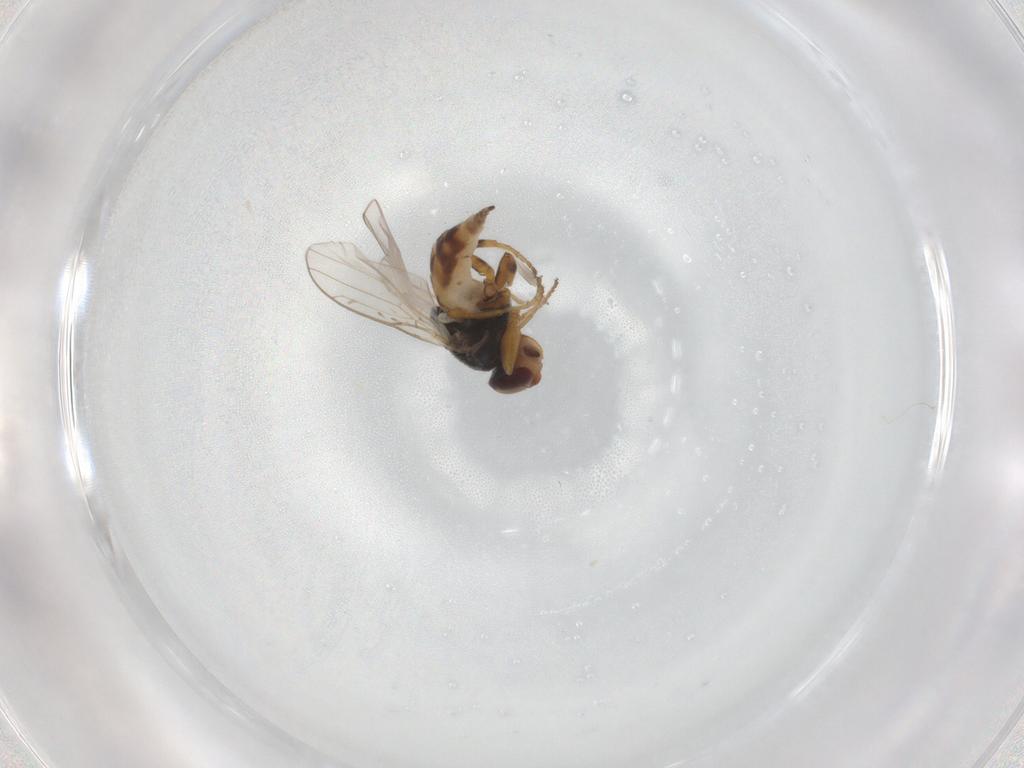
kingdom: Animalia
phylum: Arthropoda
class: Insecta
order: Diptera
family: Chloropidae
